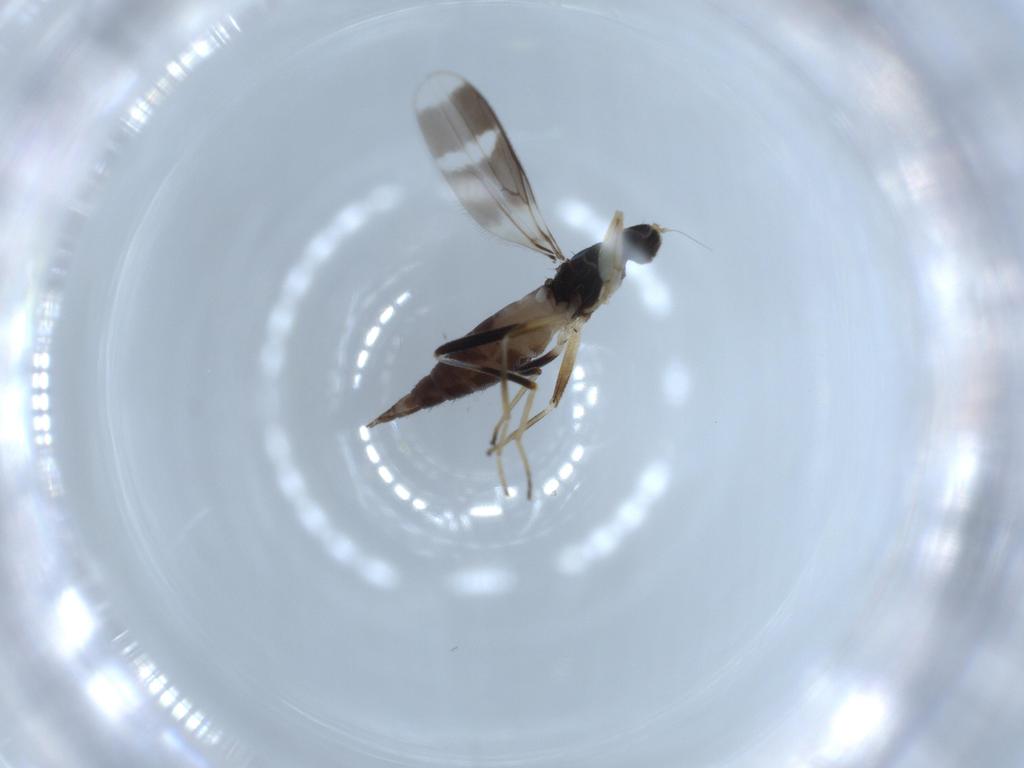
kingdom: Animalia
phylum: Arthropoda
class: Insecta
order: Diptera
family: Hybotidae
